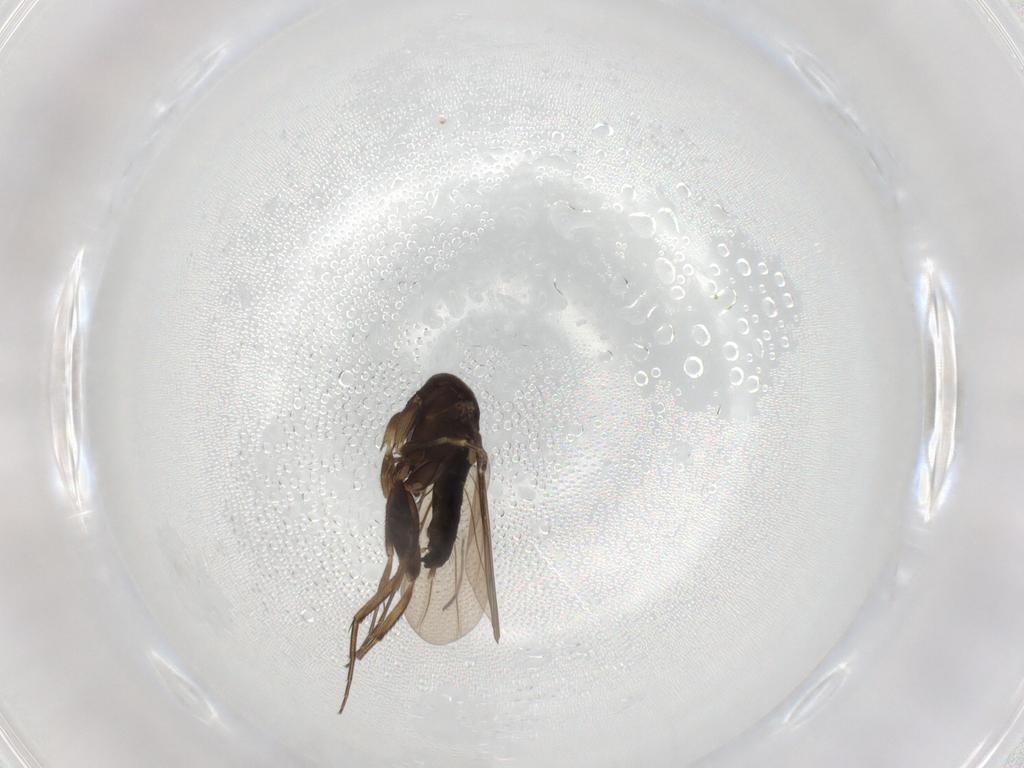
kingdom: Animalia
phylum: Arthropoda
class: Insecta
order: Diptera
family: Phoridae
